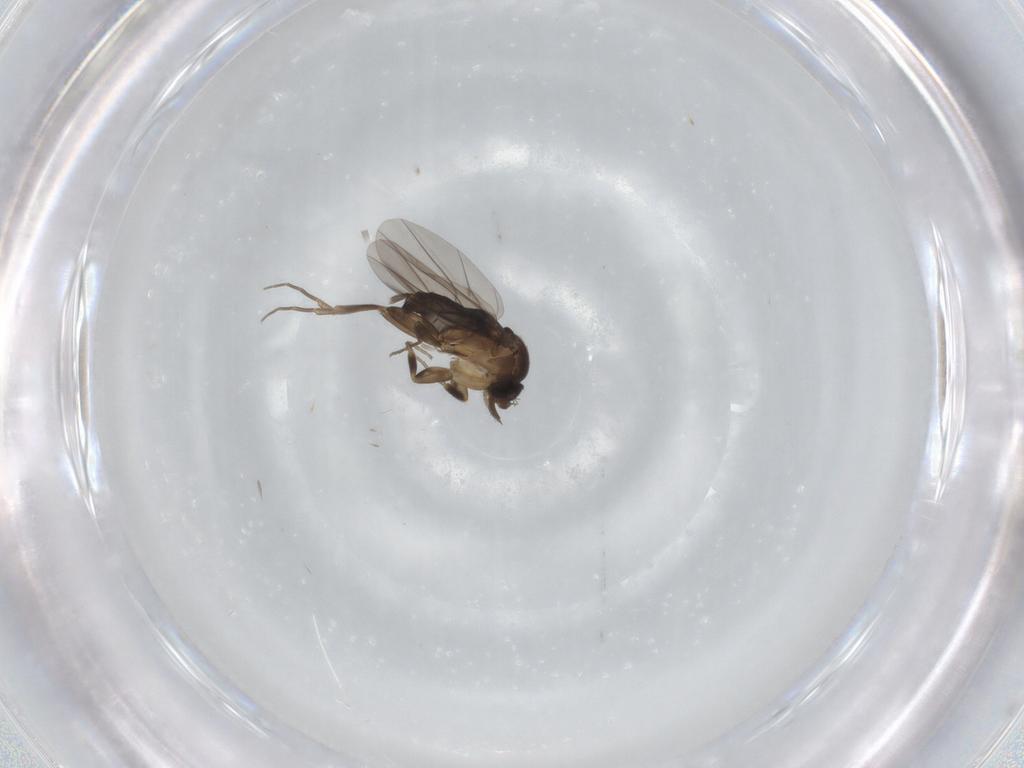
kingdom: Animalia
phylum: Arthropoda
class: Insecta
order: Diptera
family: Phoridae
